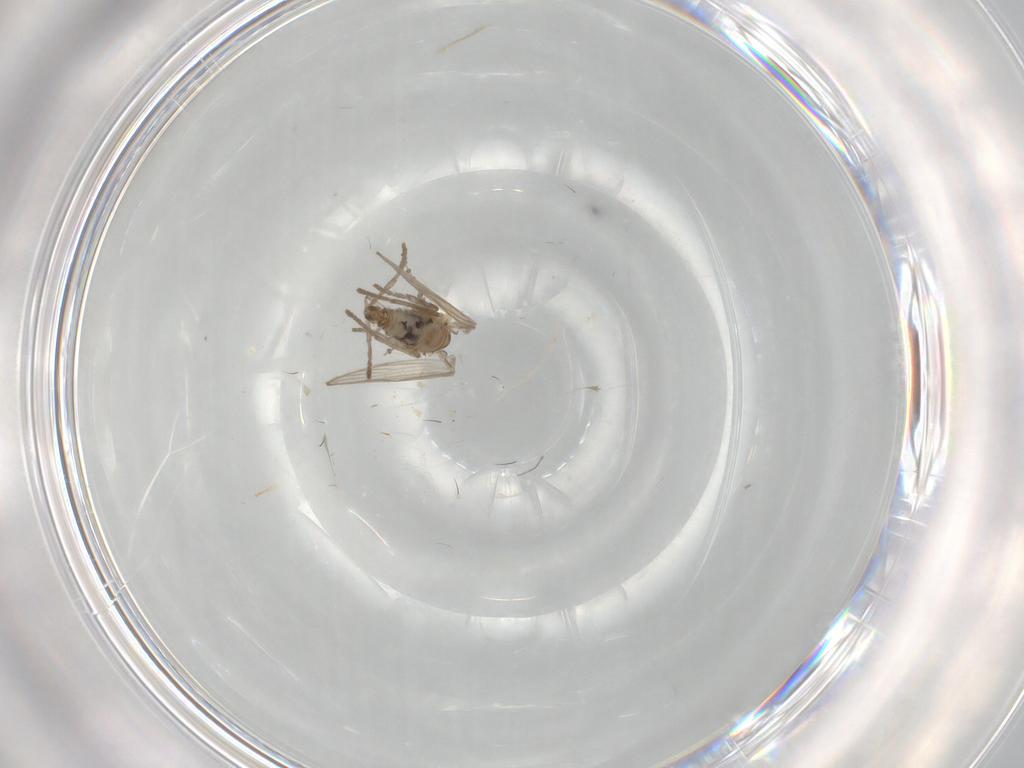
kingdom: Animalia
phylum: Arthropoda
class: Insecta
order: Diptera
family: Psychodidae
